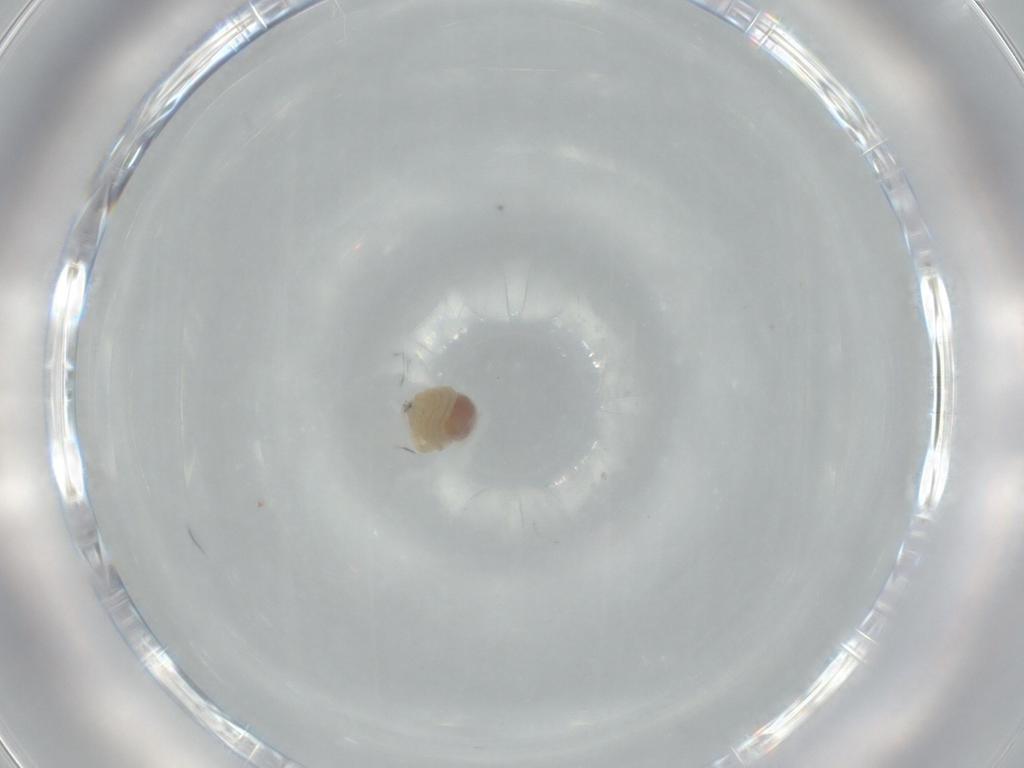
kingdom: Animalia
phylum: Arthropoda
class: Arachnida
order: Araneae
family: Pholcidae
